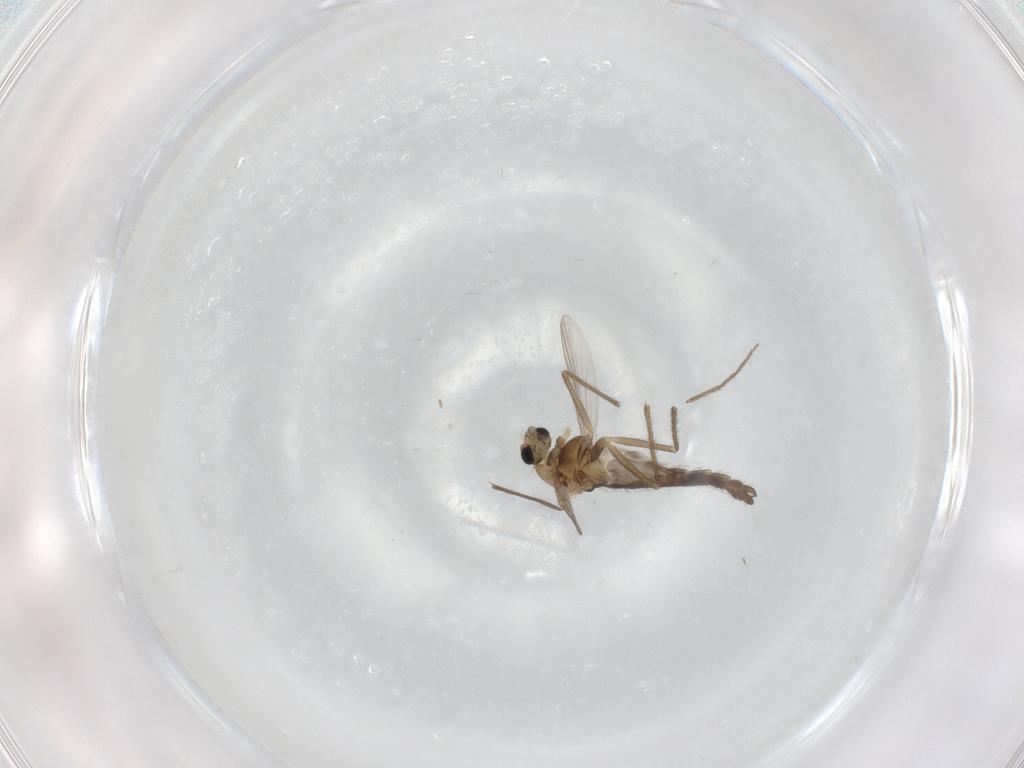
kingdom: Animalia
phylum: Arthropoda
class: Insecta
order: Diptera
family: Chironomidae
